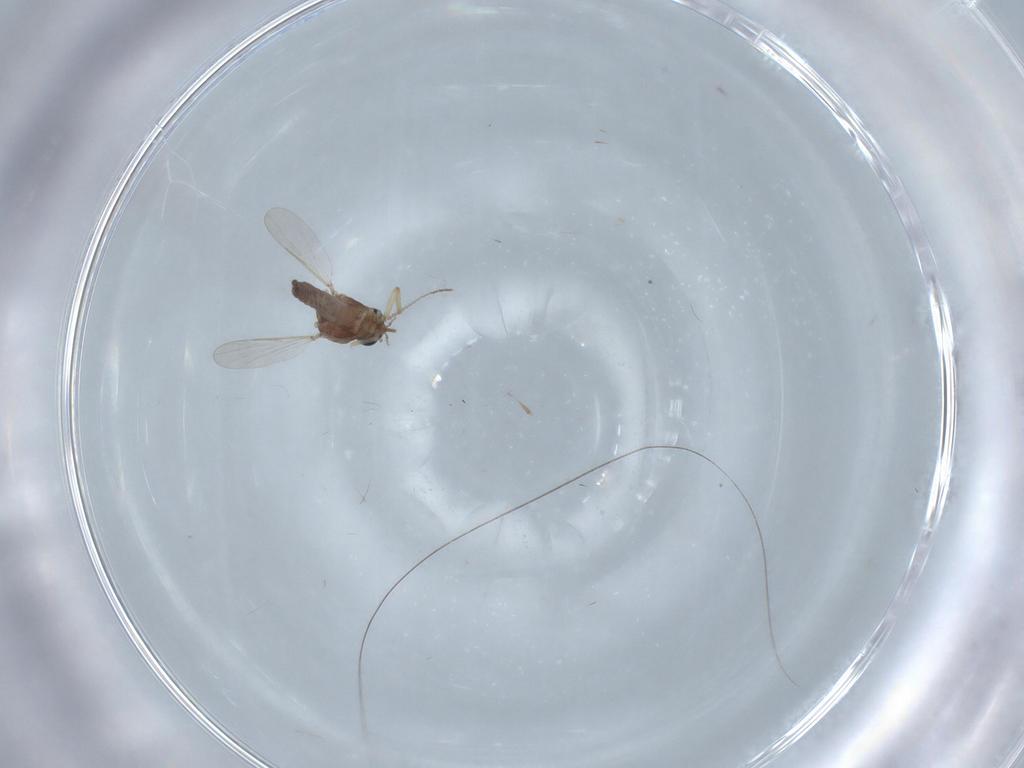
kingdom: Animalia
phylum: Arthropoda
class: Insecta
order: Diptera
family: Ceratopogonidae
